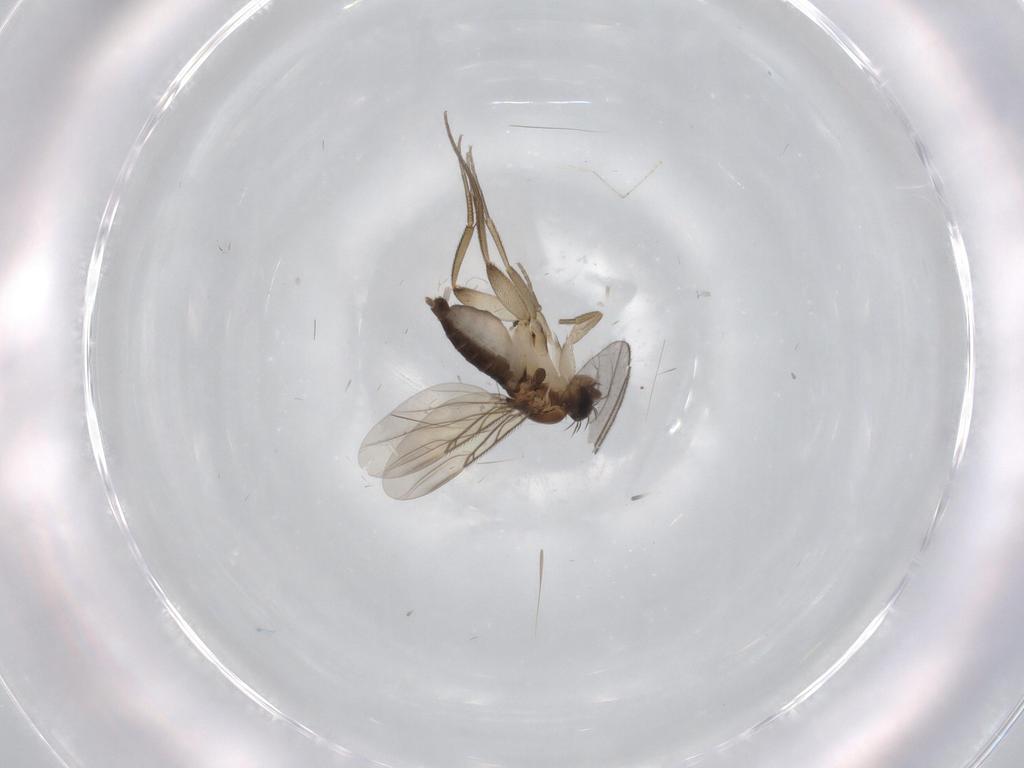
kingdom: Animalia
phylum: Arthropoda
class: Insecta
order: Diptera
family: Phoridae
